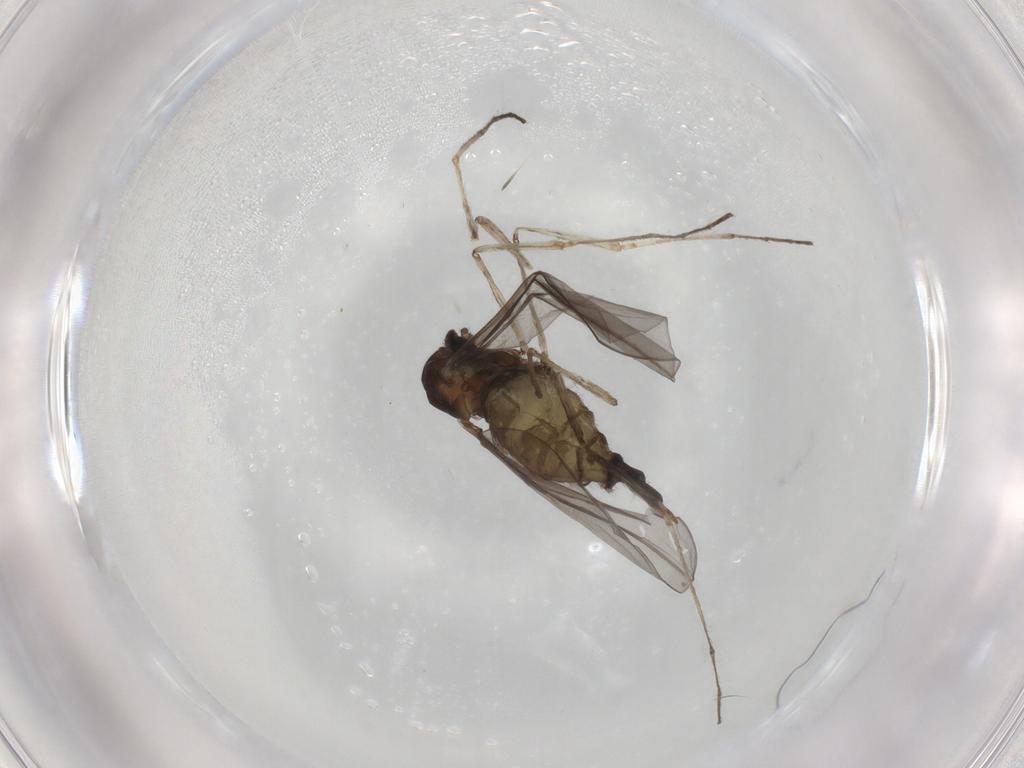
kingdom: Animalia
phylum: Arthropoda
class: Insecta
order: Diptera
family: Cecidomyiidae
